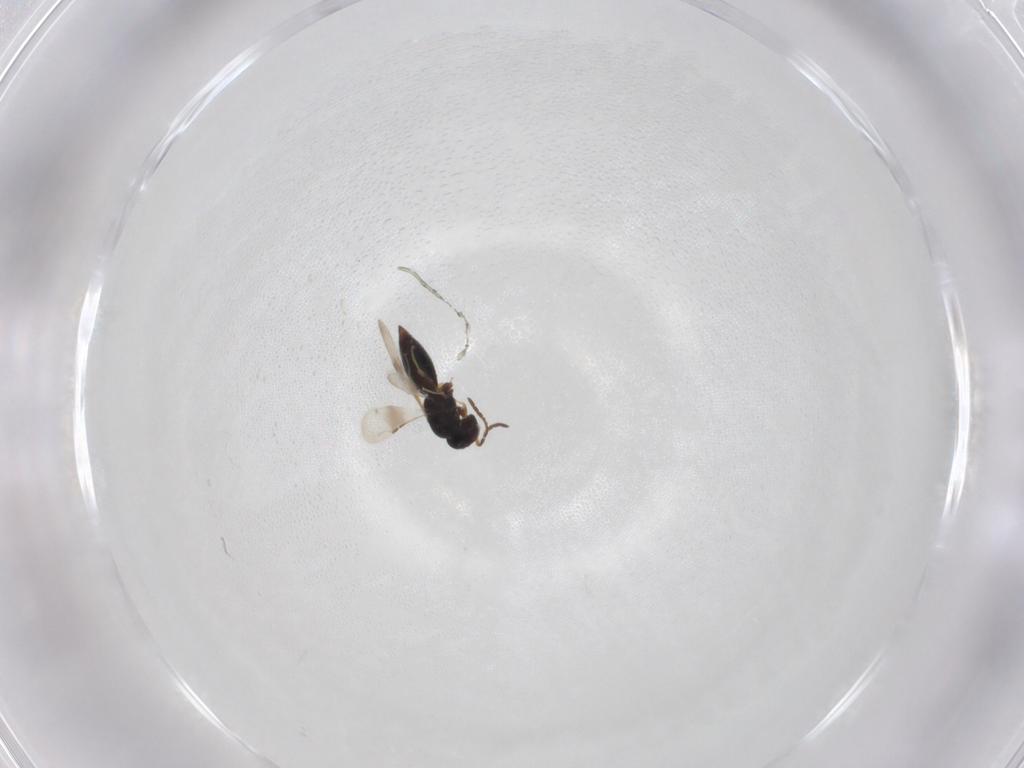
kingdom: Animalia
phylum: Arthropoda
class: Insecta
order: Hymenoptera
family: Ceraphronidae
